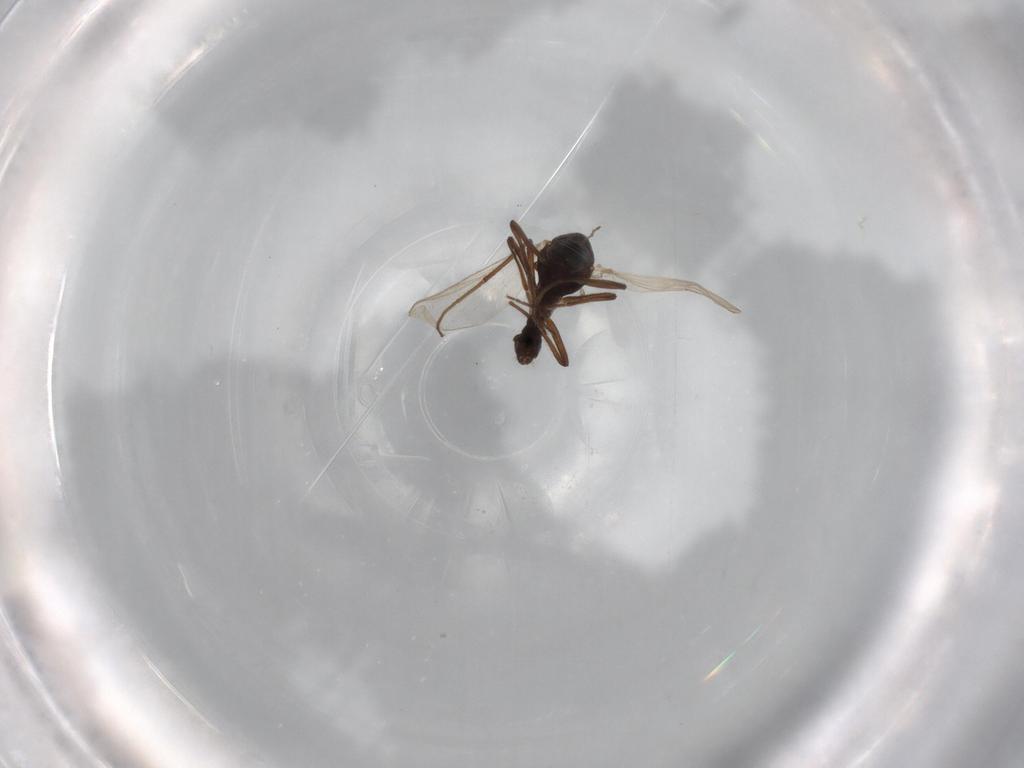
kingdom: Animalia
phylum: Arthropoda
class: Insecta
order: Diptera
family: Chironomidae
